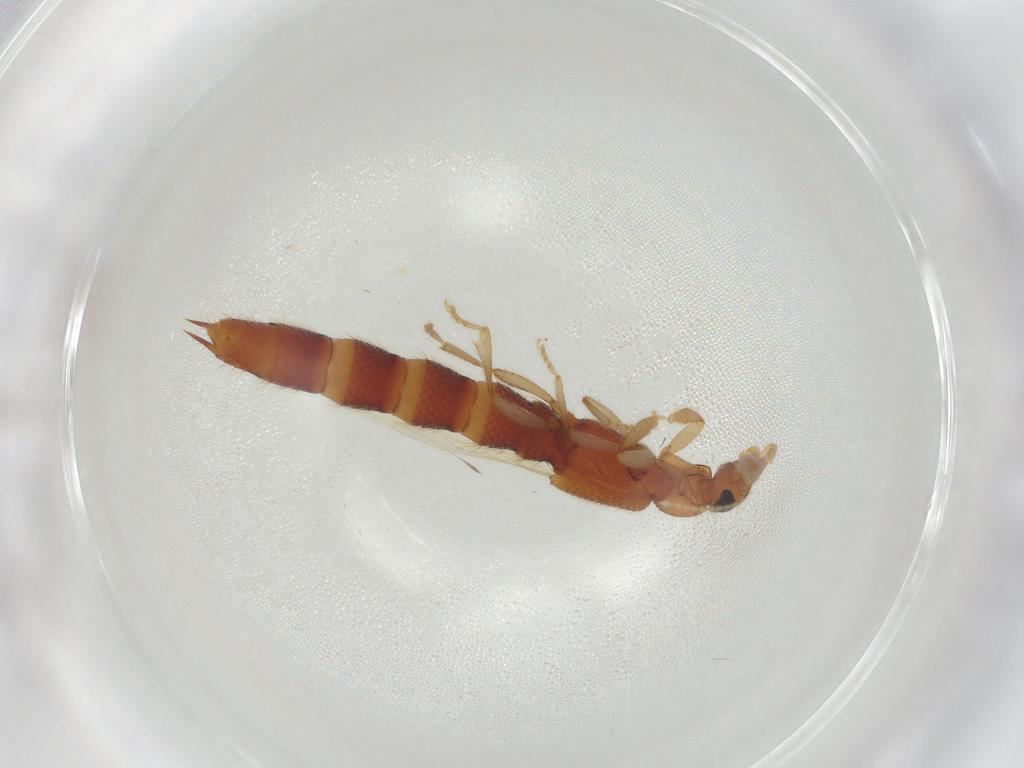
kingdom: Animalia
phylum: Arthropoda
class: Insecta
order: Coleoptera
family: Staphylinidae
